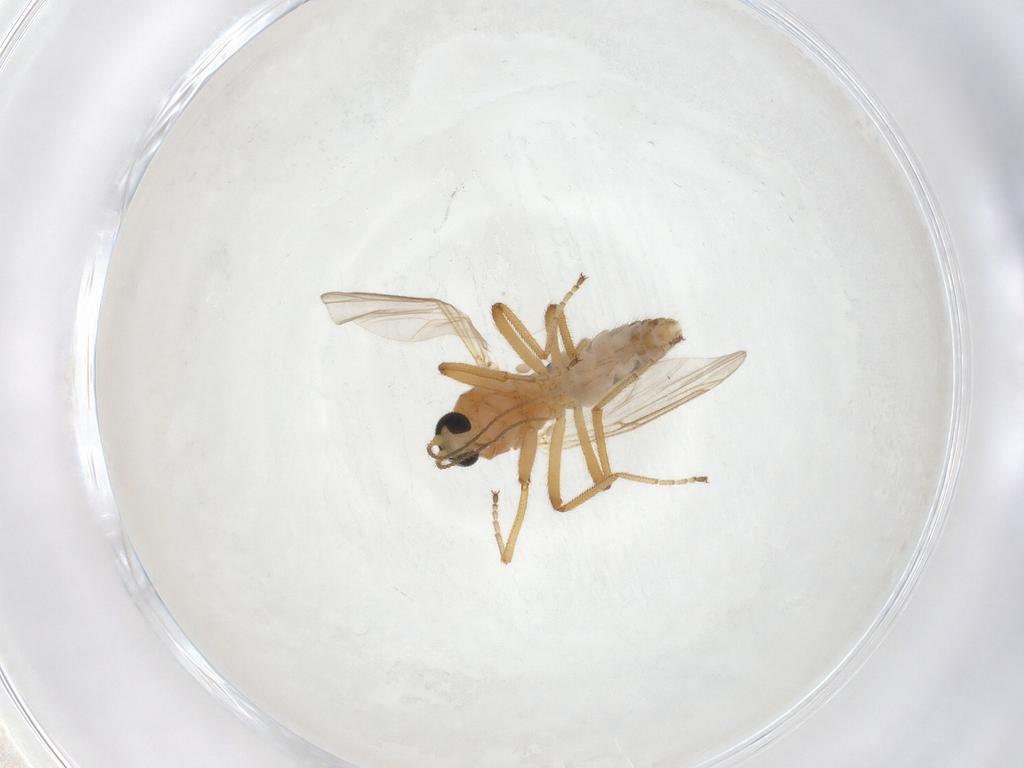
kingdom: Animalia
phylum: Arthropoda
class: Insecta
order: Diptera
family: Ceratopogonidae
